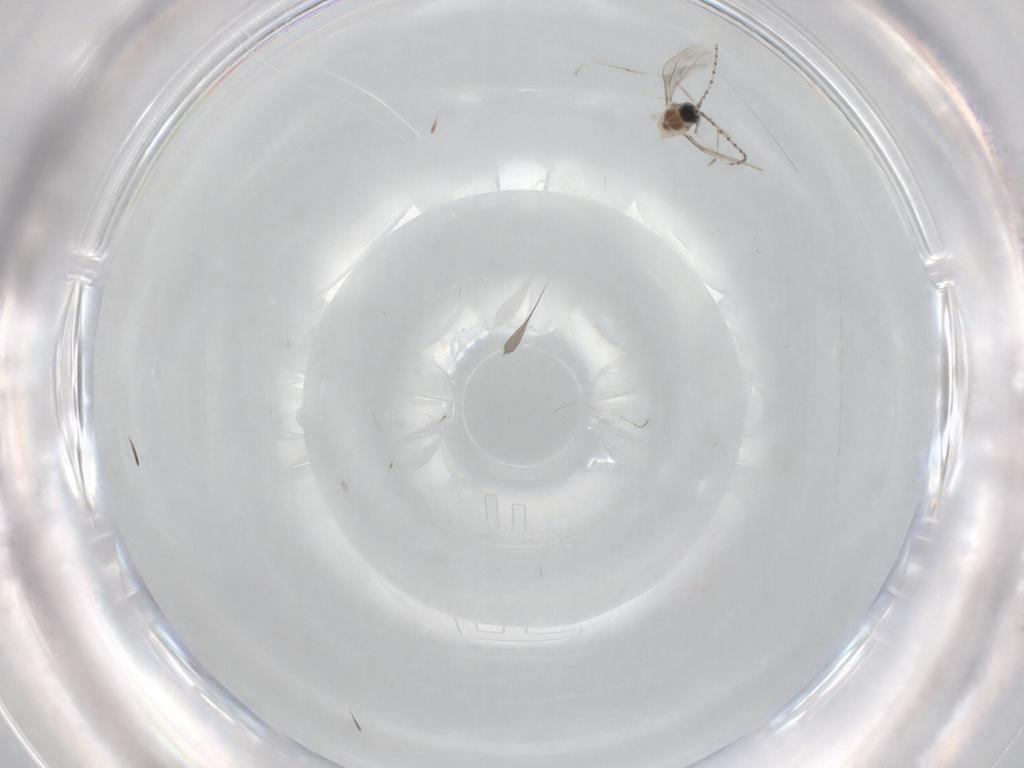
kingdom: Animalia
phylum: Arthropoda
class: Insecta
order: Diptera
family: Cecidomyiidae
